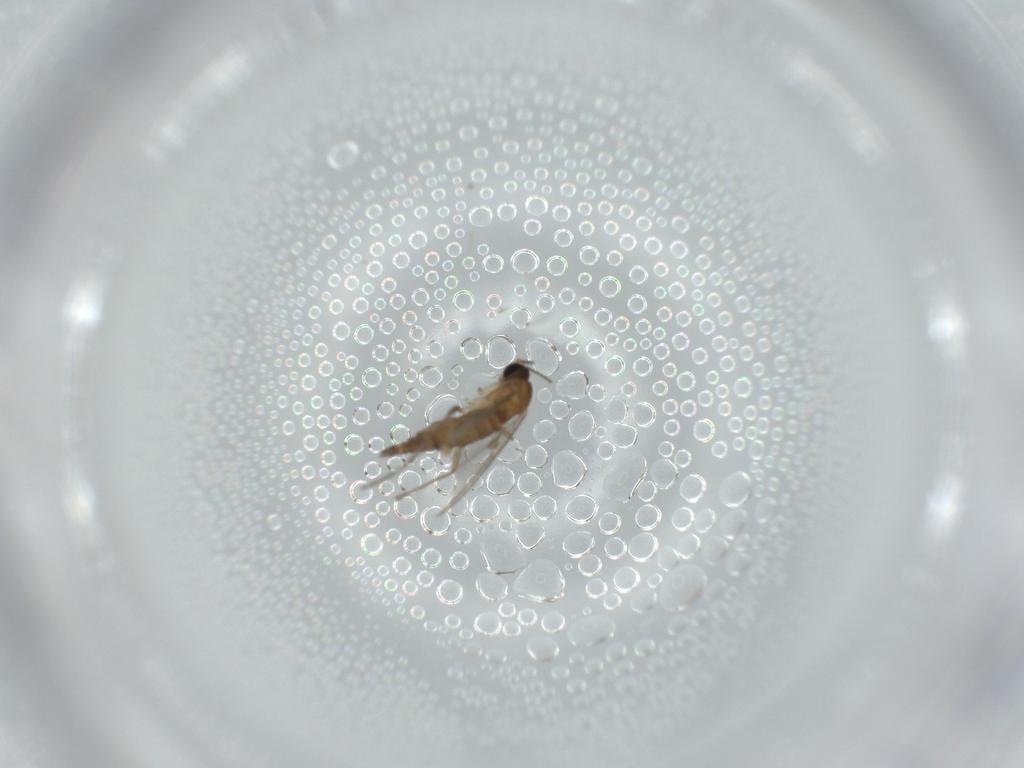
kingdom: Animalia
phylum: Arthropoda
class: Insecta
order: Diptera
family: Sciaridae
